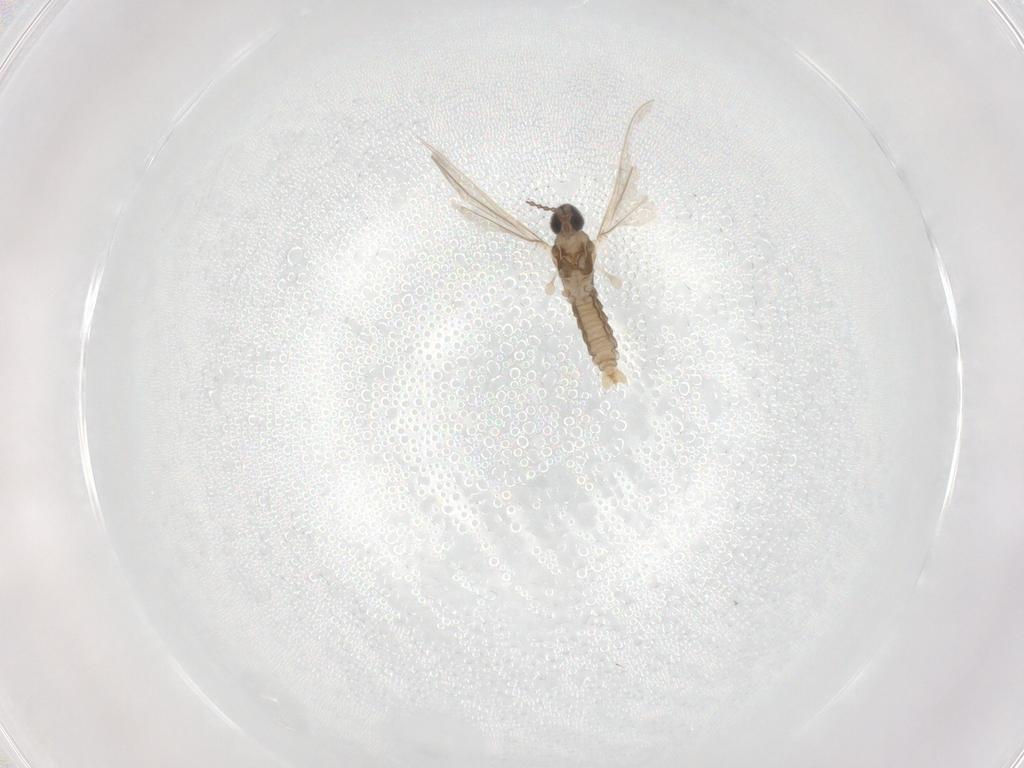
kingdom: Animalia
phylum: Arthropoda
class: Insecta
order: Diptera
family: Cecidomyiidae
